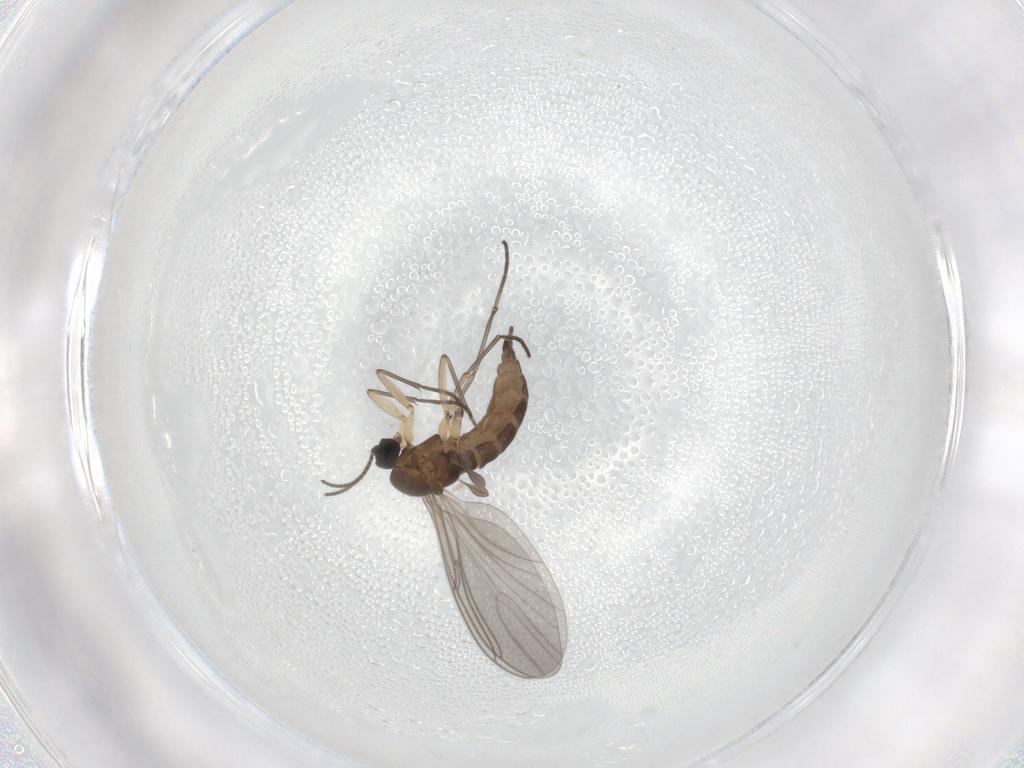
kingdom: Animalia
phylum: Arthropoda
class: Insecta
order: Diptera
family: Sciaridae
